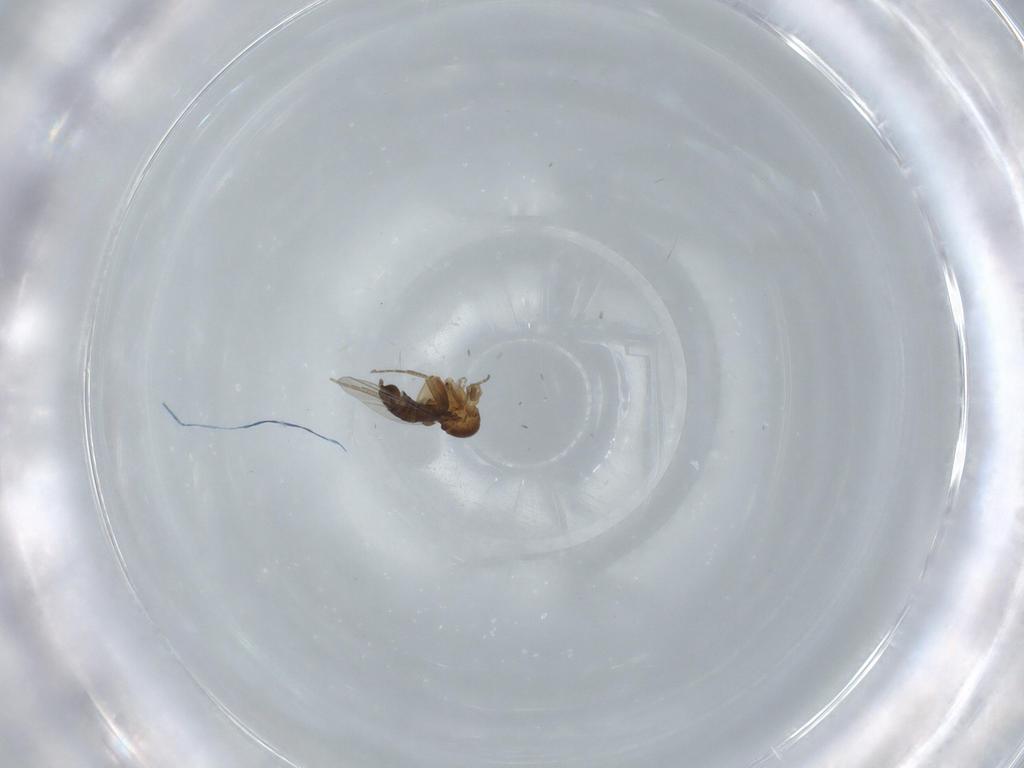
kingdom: Animalia
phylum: Arthropoda
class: Insecta
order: Diptera
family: Phoridae
